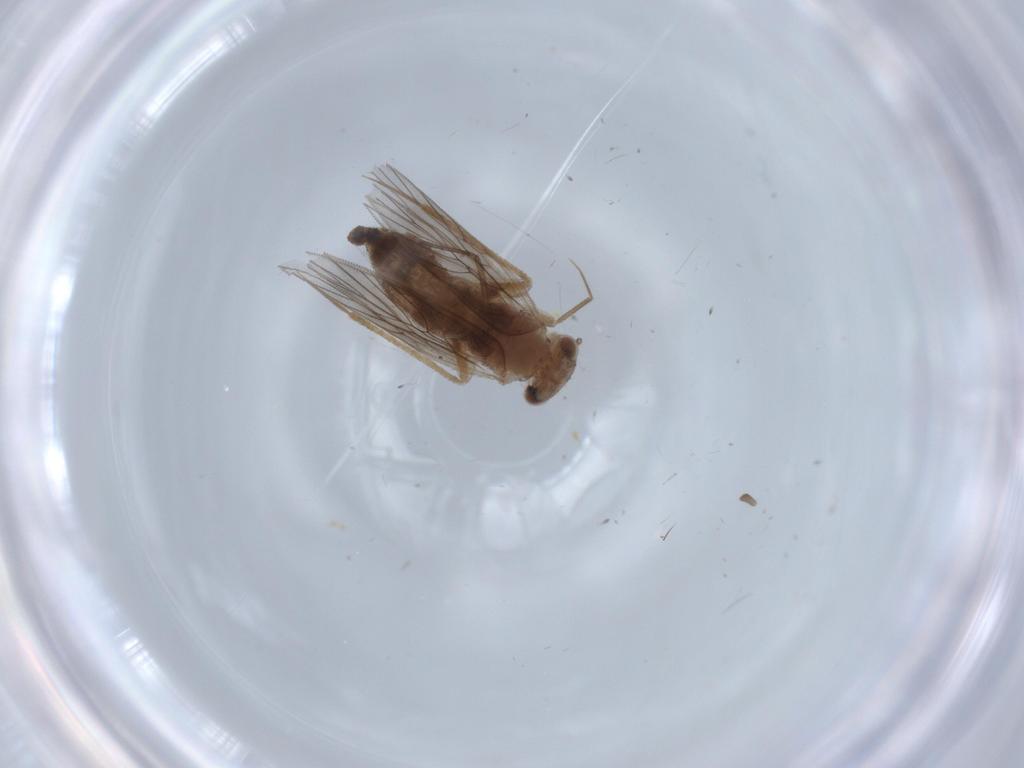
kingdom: Animalia
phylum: Arthropoda
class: Insecta
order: Psocodea
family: Lepidopsocidae
